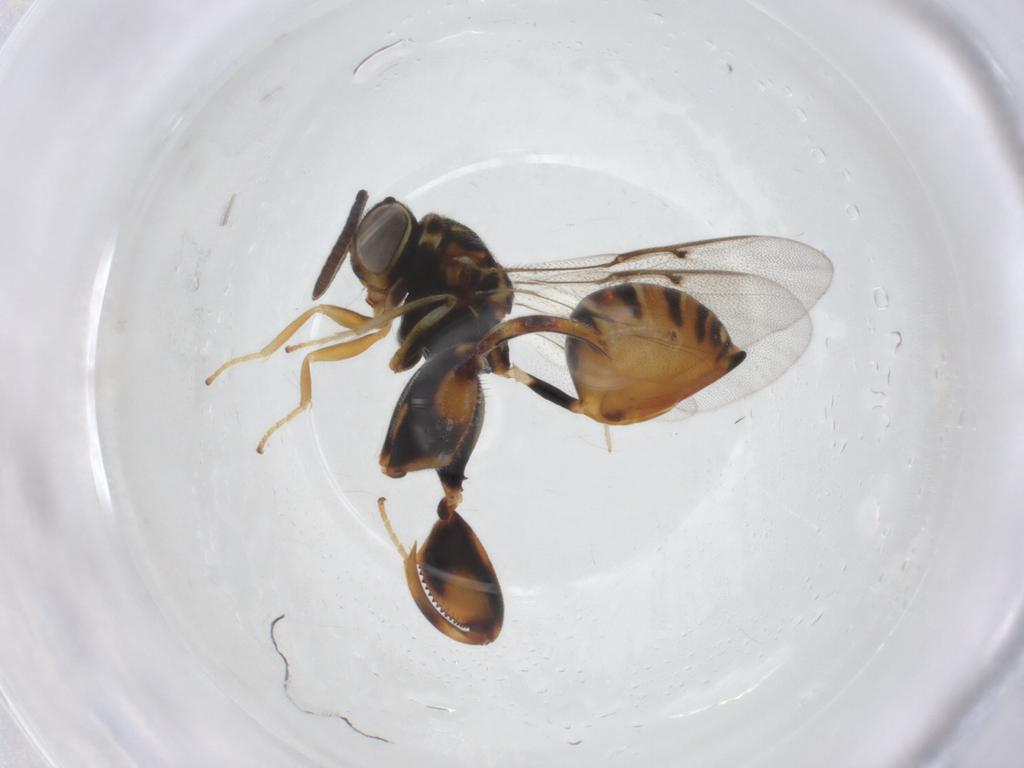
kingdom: Animalia
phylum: Arthropoda
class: Insecta
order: Hymenoptera
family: Chalcididae
